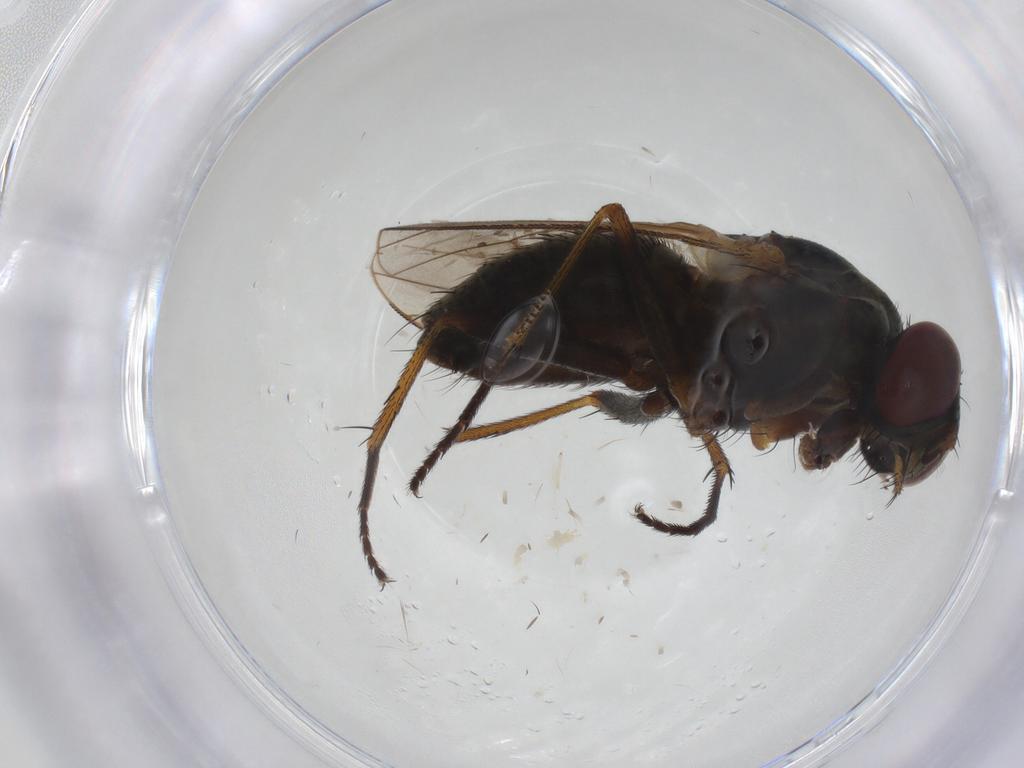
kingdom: Animalia
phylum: Arthropoda
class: Insecta
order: Diptera
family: Muscidae
